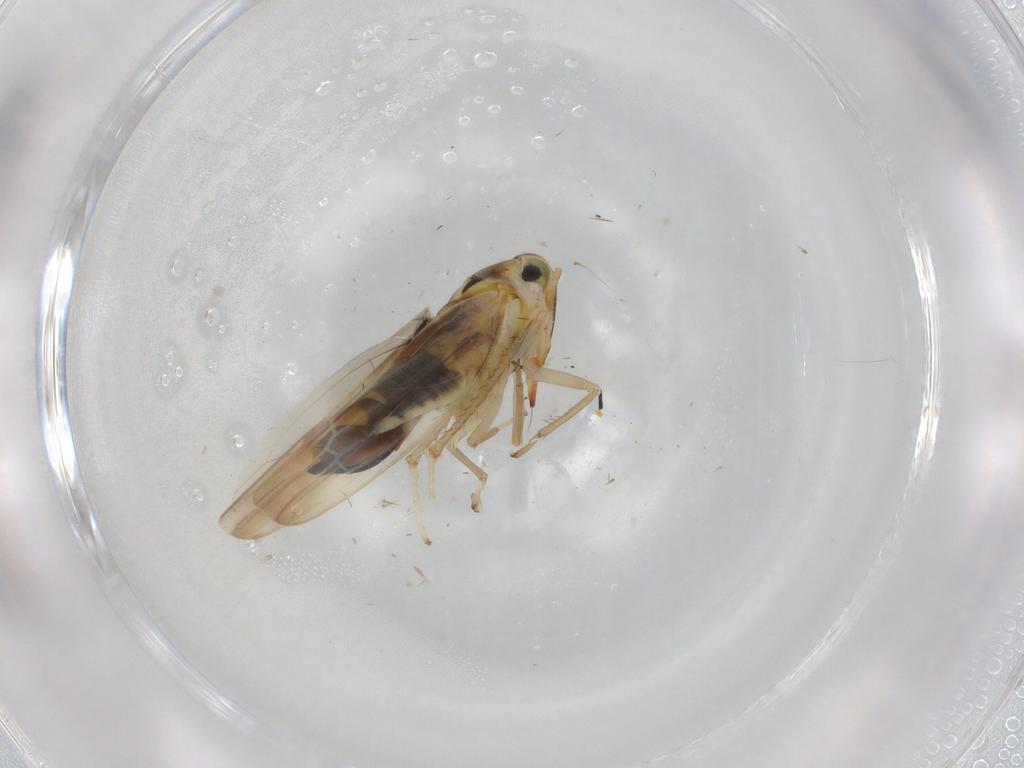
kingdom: Animalia
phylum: Arthropoda
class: Insecta
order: Hemiptera
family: Cicadellidae
